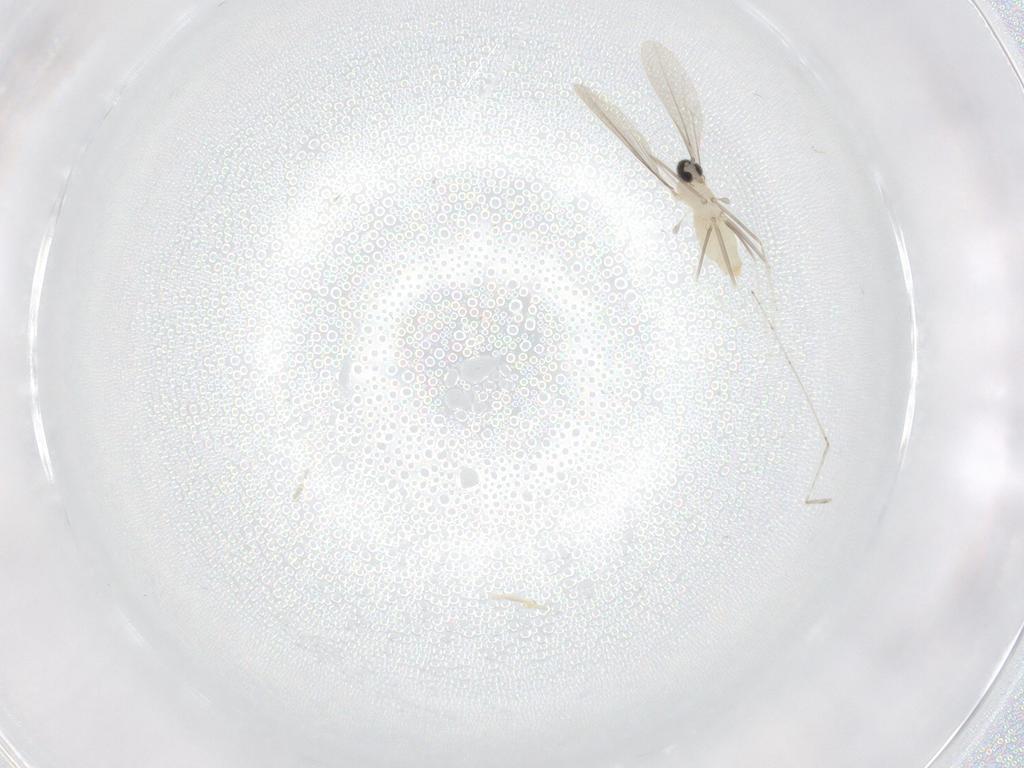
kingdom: Animalia
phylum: Arthropoda
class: Insecta
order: Diptera
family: Cecidomyiidae
